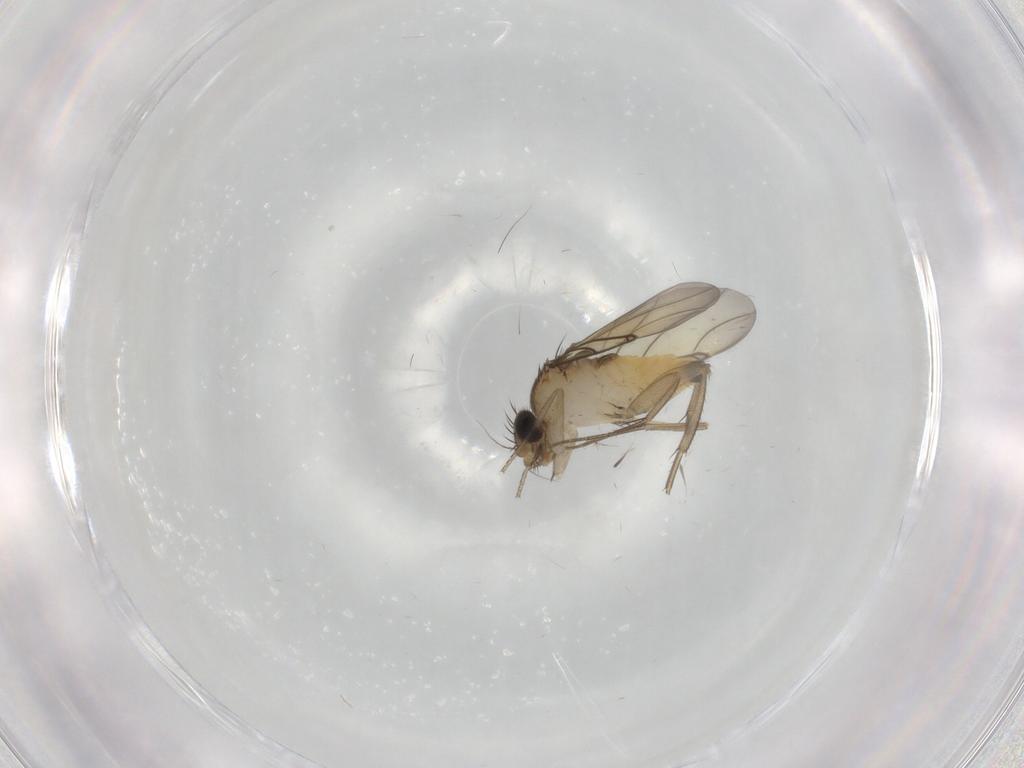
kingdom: Animalia
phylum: Arthropoda
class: Insecta
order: Diptera
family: Phoridae
